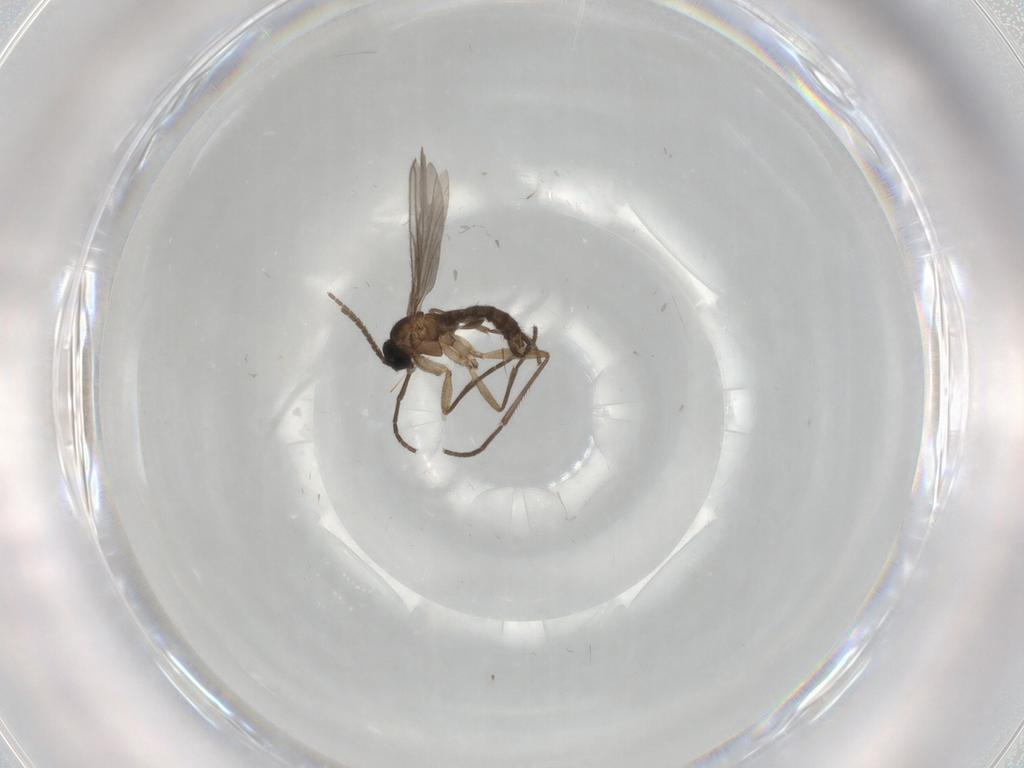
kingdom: Animalia
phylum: Arthropoda
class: Insecta
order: Diptera
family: Sciaridae
